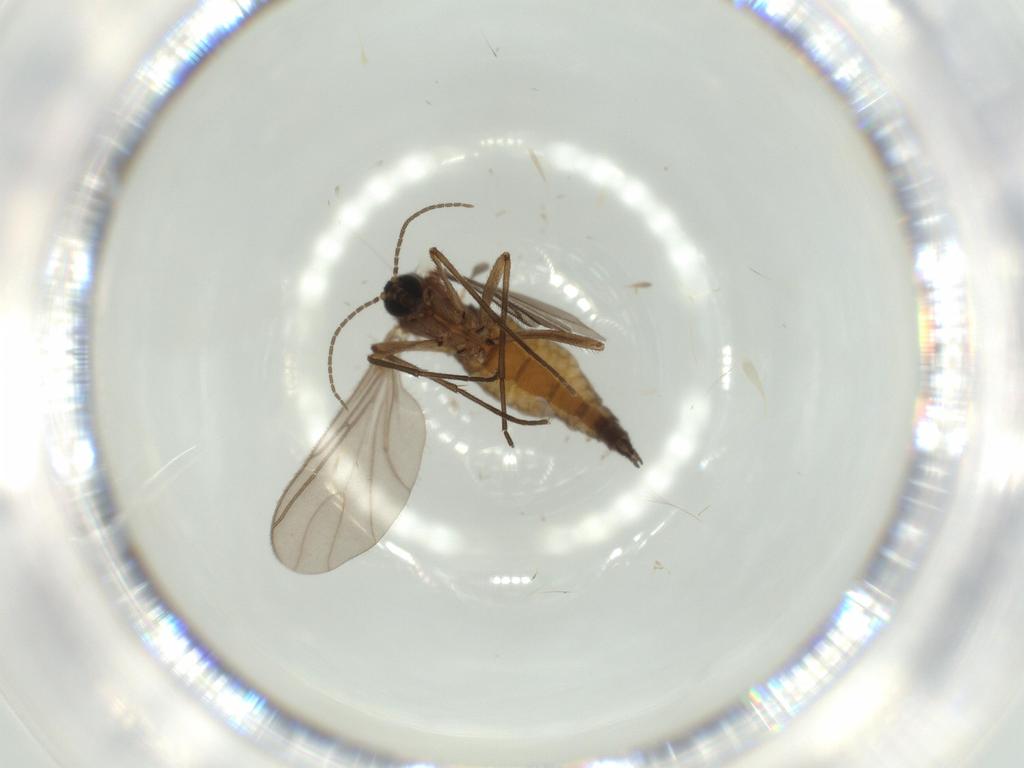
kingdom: Animalia
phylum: Arthropoda
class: Insecta
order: Diptera
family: Sciaridae
